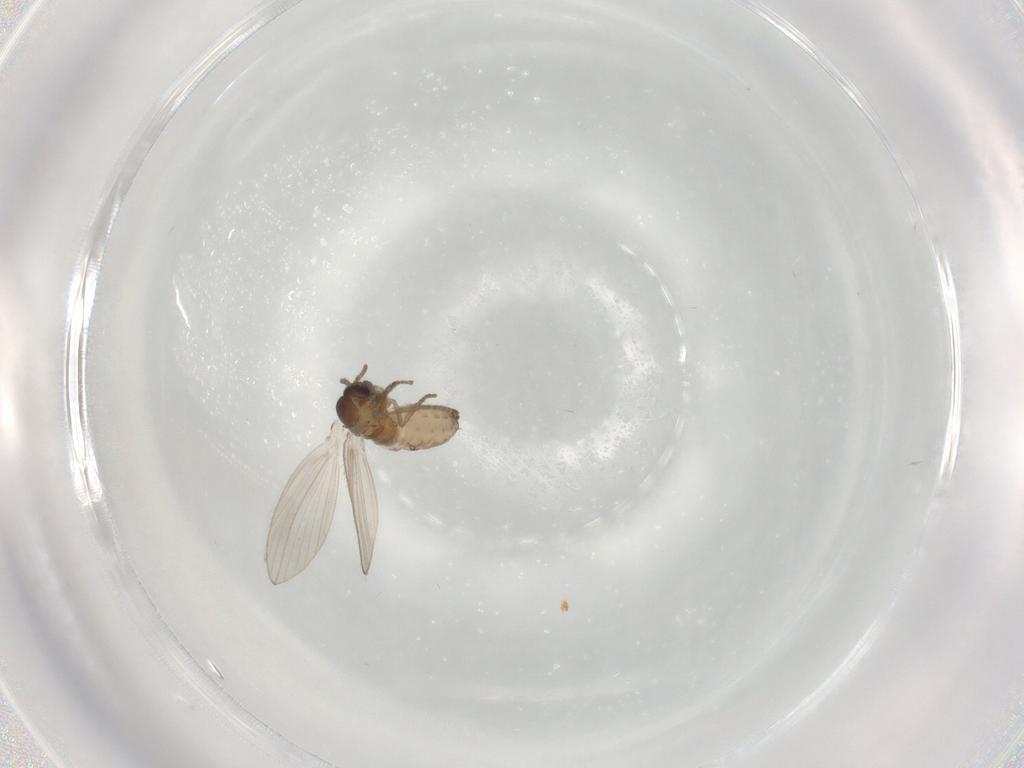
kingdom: Animalia
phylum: Arthropoda
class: Insecta
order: Diptera
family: Cecidomyiidae
